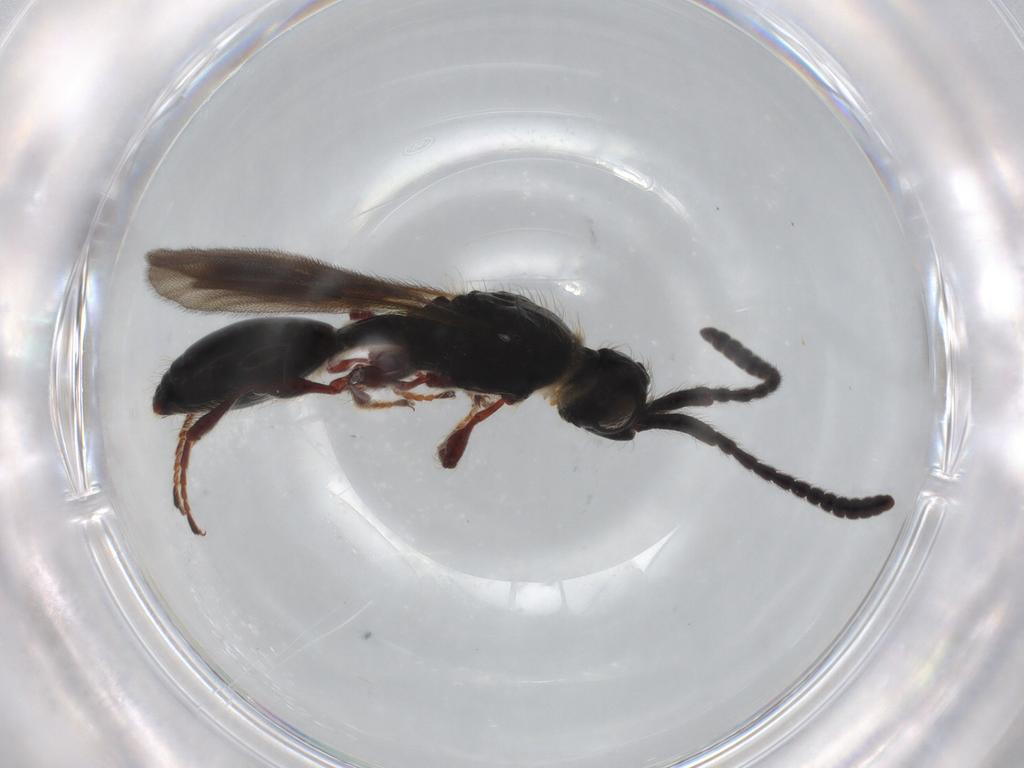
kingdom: Animalia
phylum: Arthropoda
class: Insecta
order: Hymenoptera
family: Diapriidae
